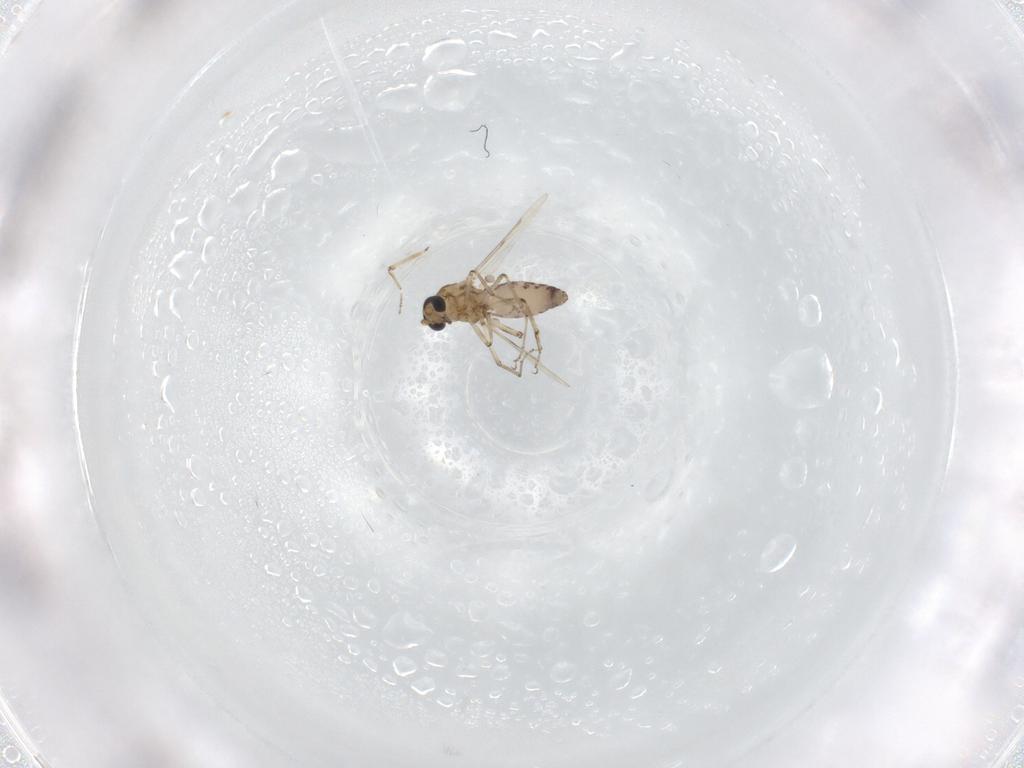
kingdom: Animalia
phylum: Arthropoda
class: Insecta
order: Diptera
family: Ceratopogonidae
